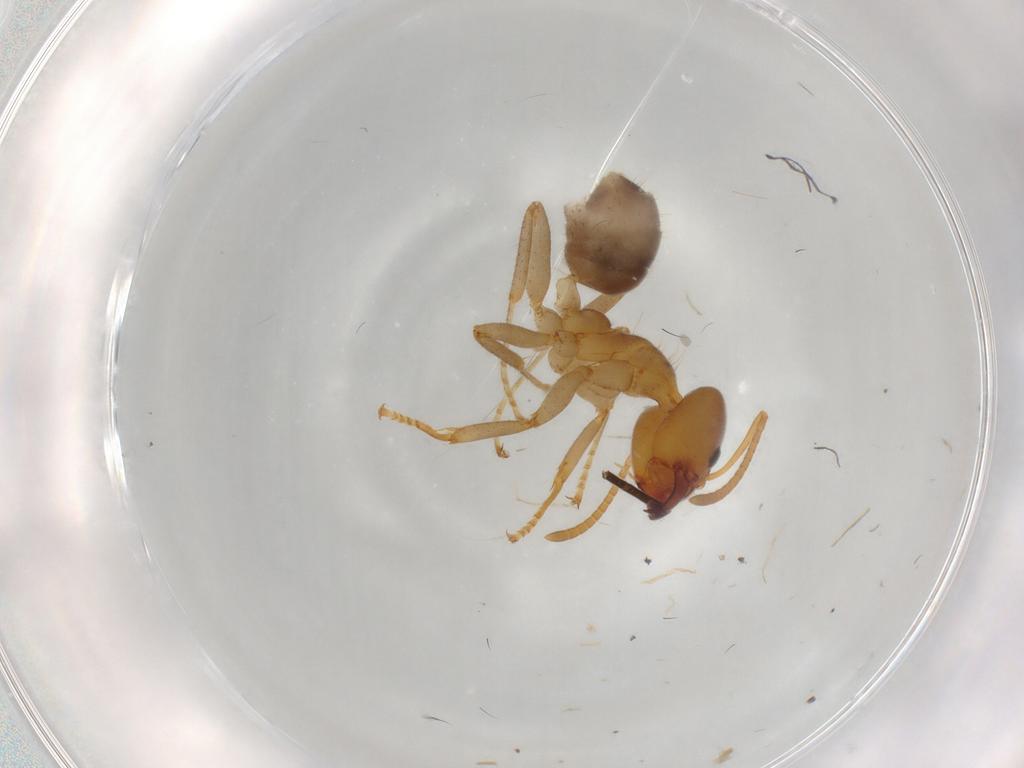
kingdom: Animalia
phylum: Arthropoda
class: Insecta
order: Hymenoptera
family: Formicidae
